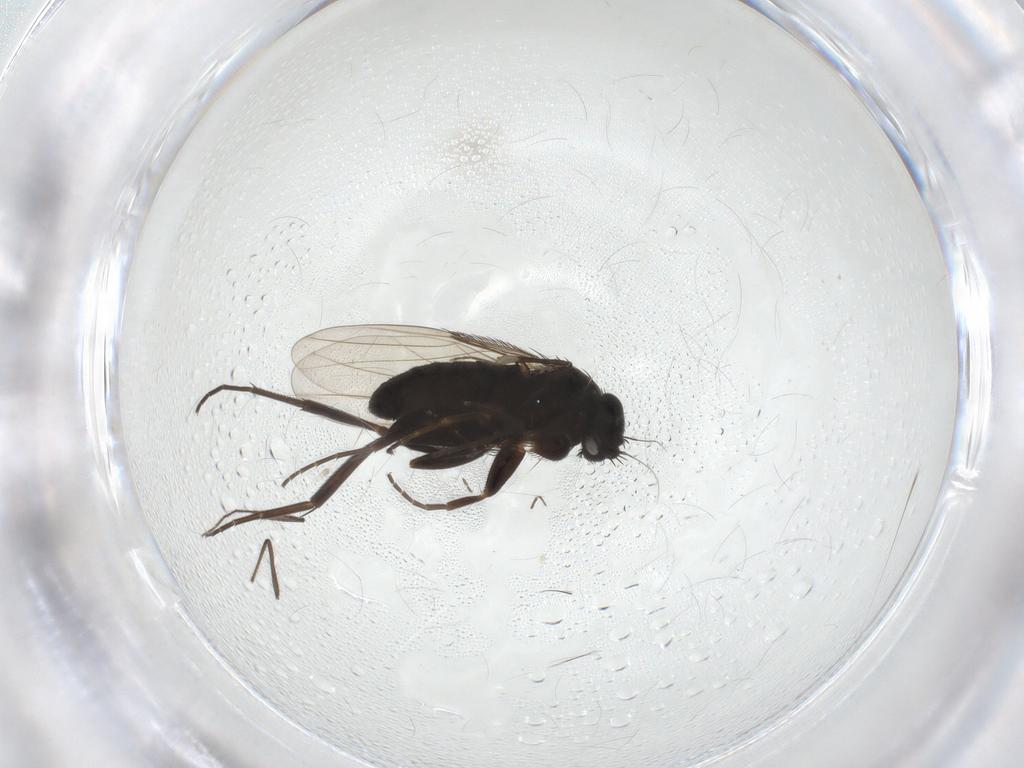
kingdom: Animalia
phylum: Arthropoda
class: Insecta
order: Diptera
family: Phoridae
